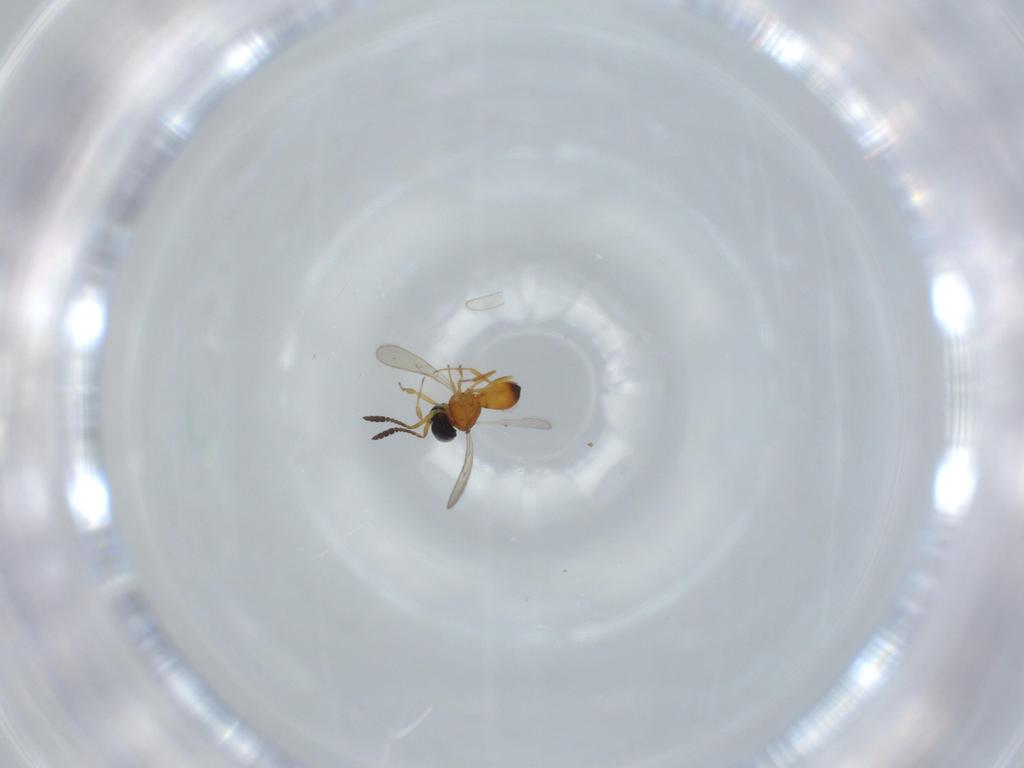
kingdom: Animalia
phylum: Arthropoda
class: Insecta
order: Hymenoptera
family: Scelionidae
